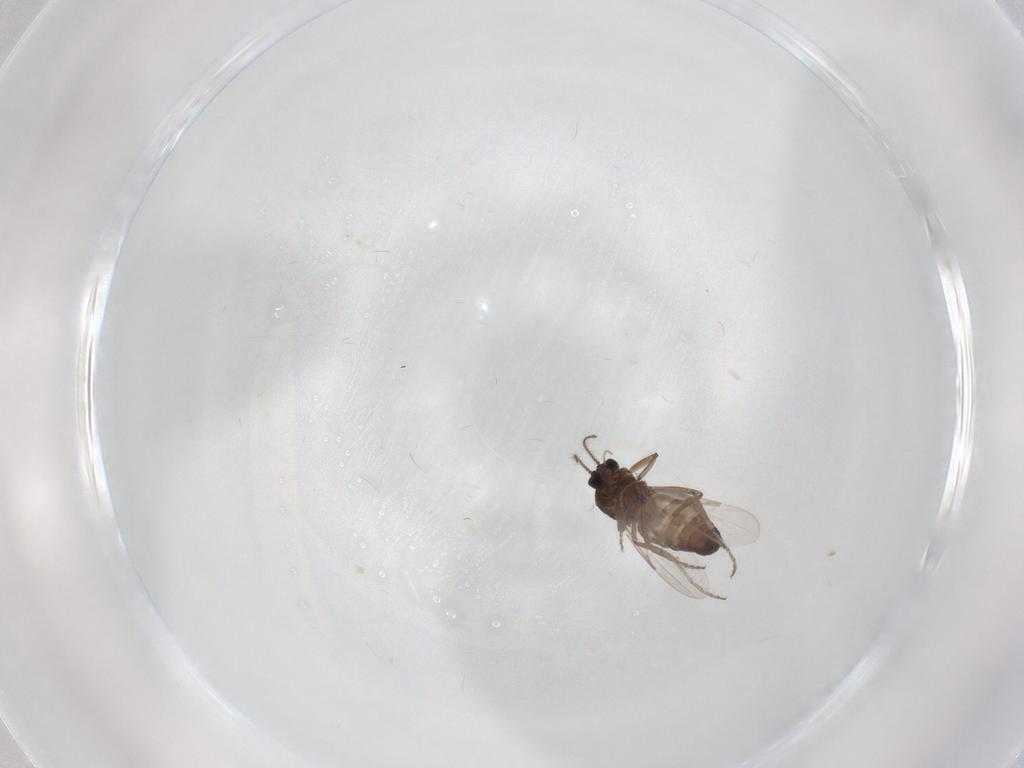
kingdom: Animalia
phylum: Arthropoda
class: Insecta
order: Diptera
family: Ceratopogonidae
